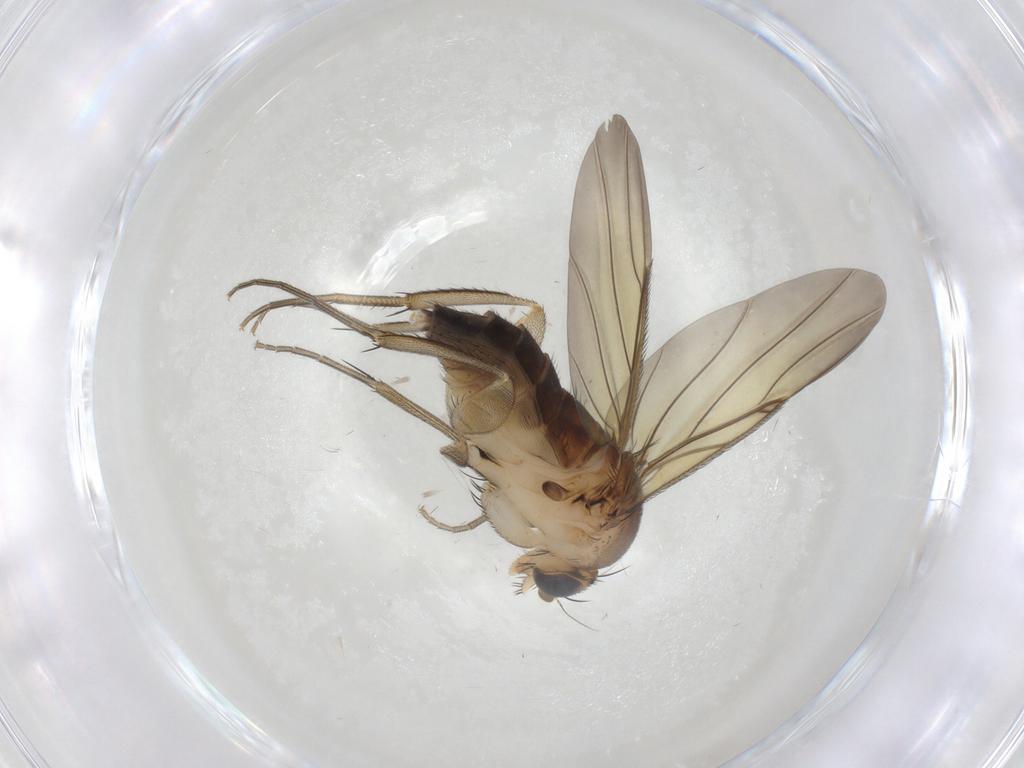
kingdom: Animalia
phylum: Arthropoda
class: Insecta
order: Diptera
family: Phoridae
